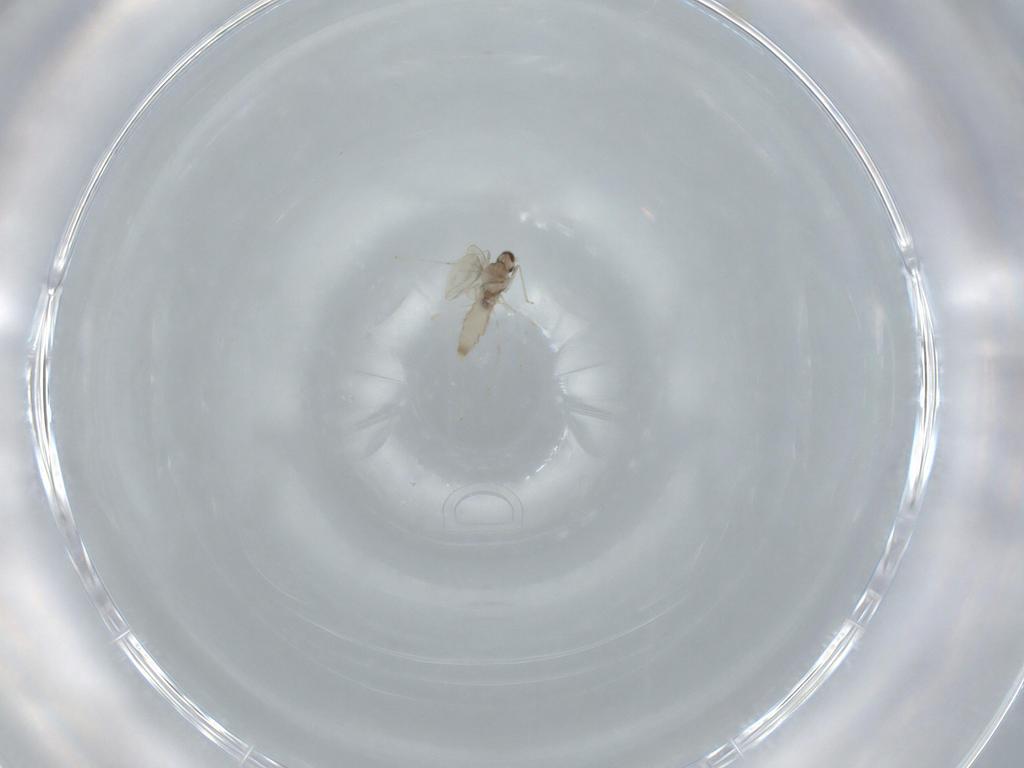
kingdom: Animalia
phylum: Arthropoda
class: Insecta
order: Diptera
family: Cecidomyiidae
